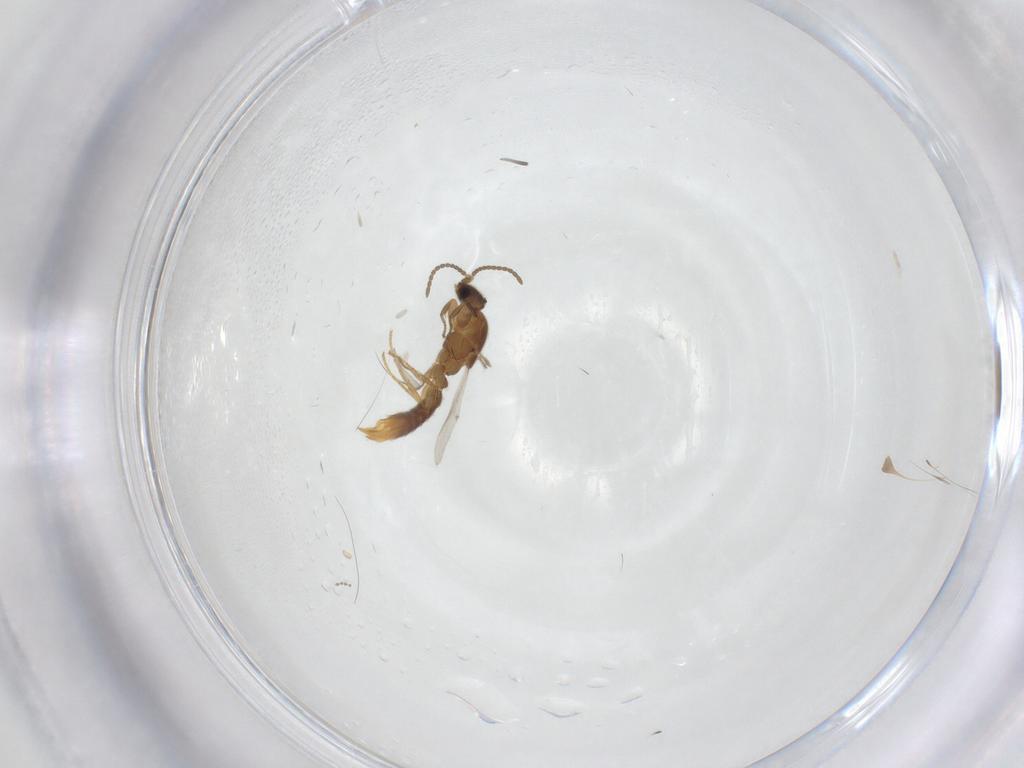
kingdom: Animalia
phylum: Arthropoda
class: Insecta
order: Hymenoptera
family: Formicidae
